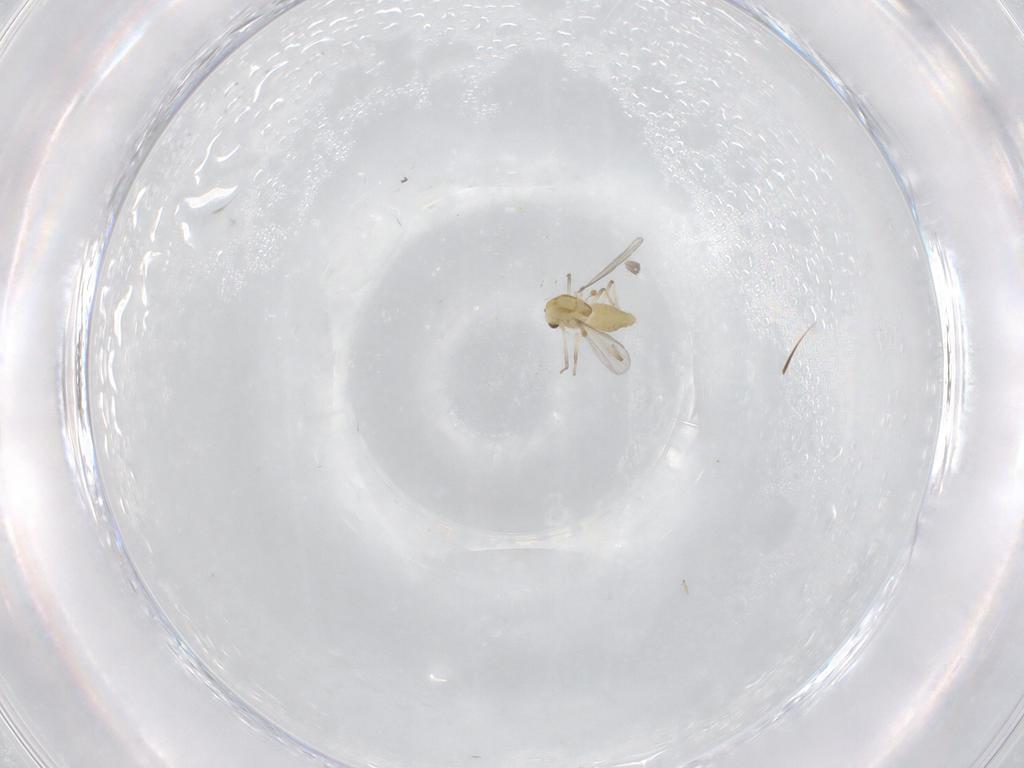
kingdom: Animalia
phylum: Arthropoda
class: Insecta
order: Diptera
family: Chironomidae
